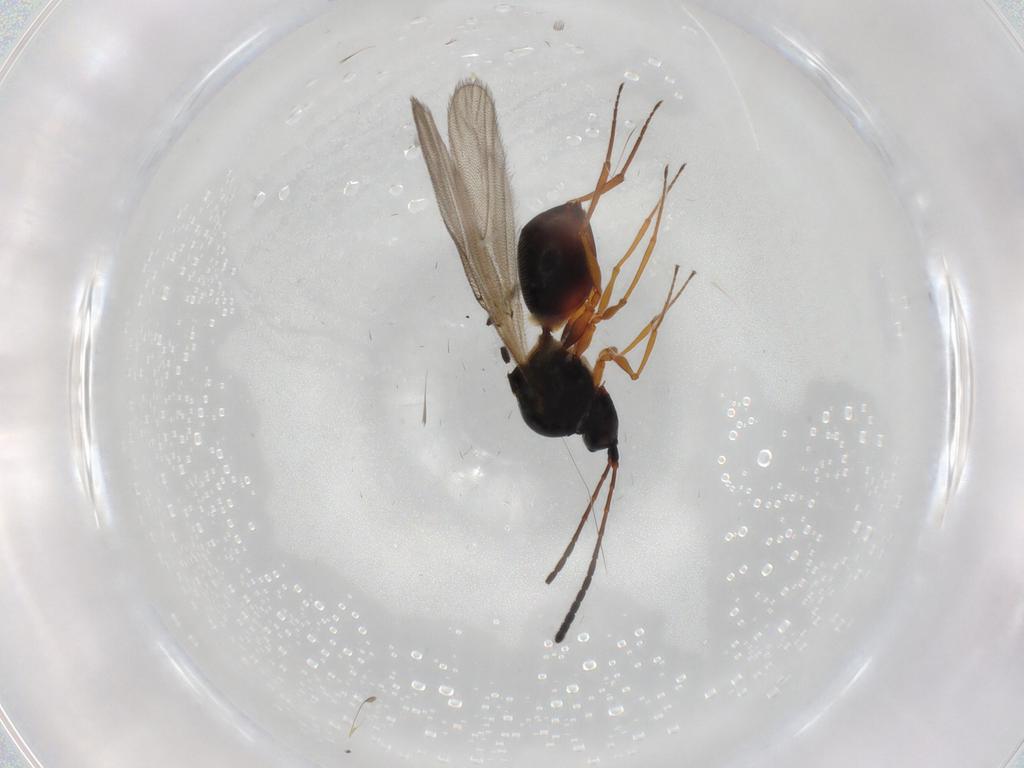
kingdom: Animalia
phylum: Arthropoda
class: Insecta
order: Hymenoptera
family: Figitidae
